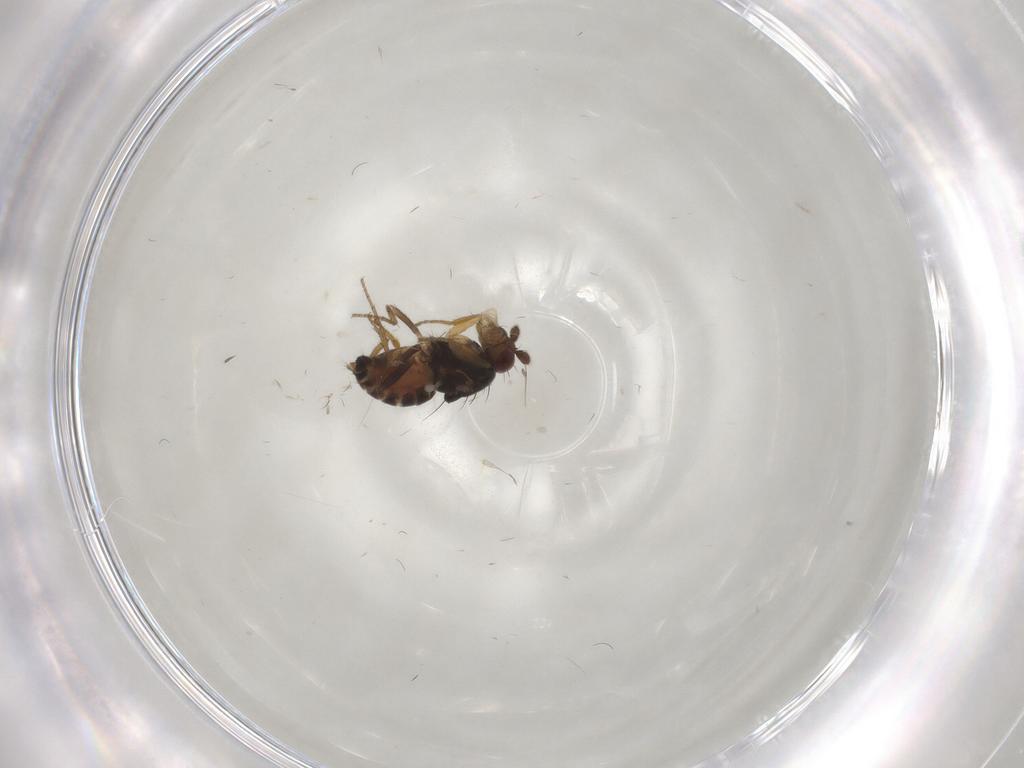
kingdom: Animalia
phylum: Arthropoda
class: Insecta
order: Diptera
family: Sphaeroceridae
